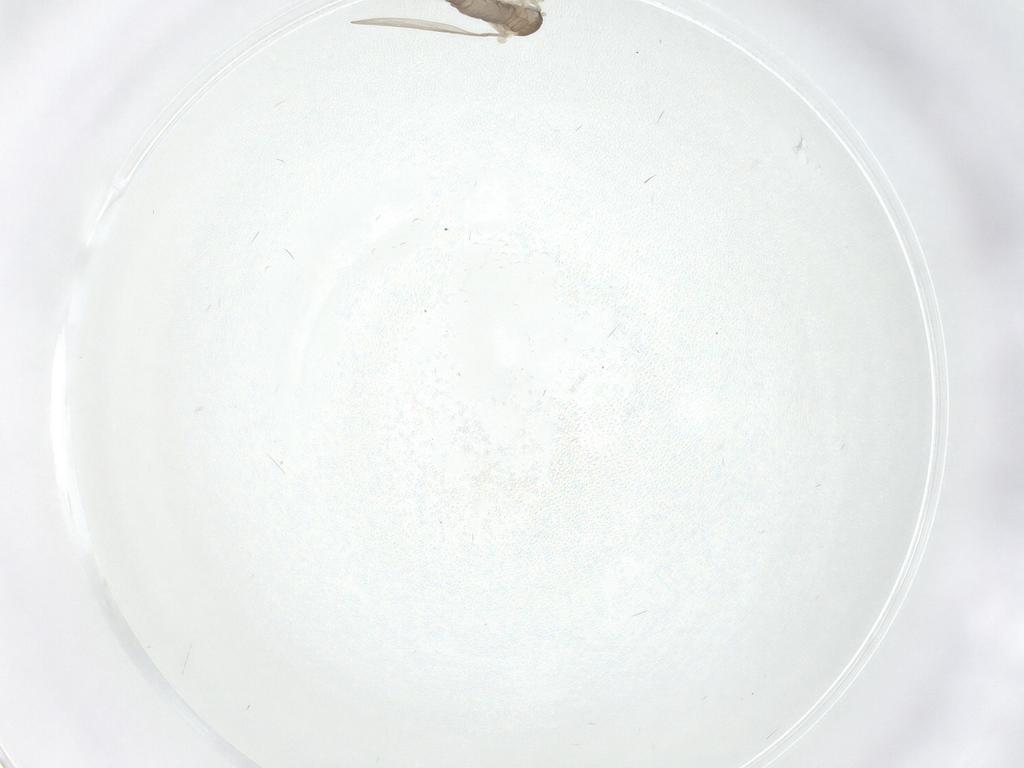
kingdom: Animalia
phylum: Arthropoda
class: Insecta
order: Diptera
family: Cecidomyiidae
